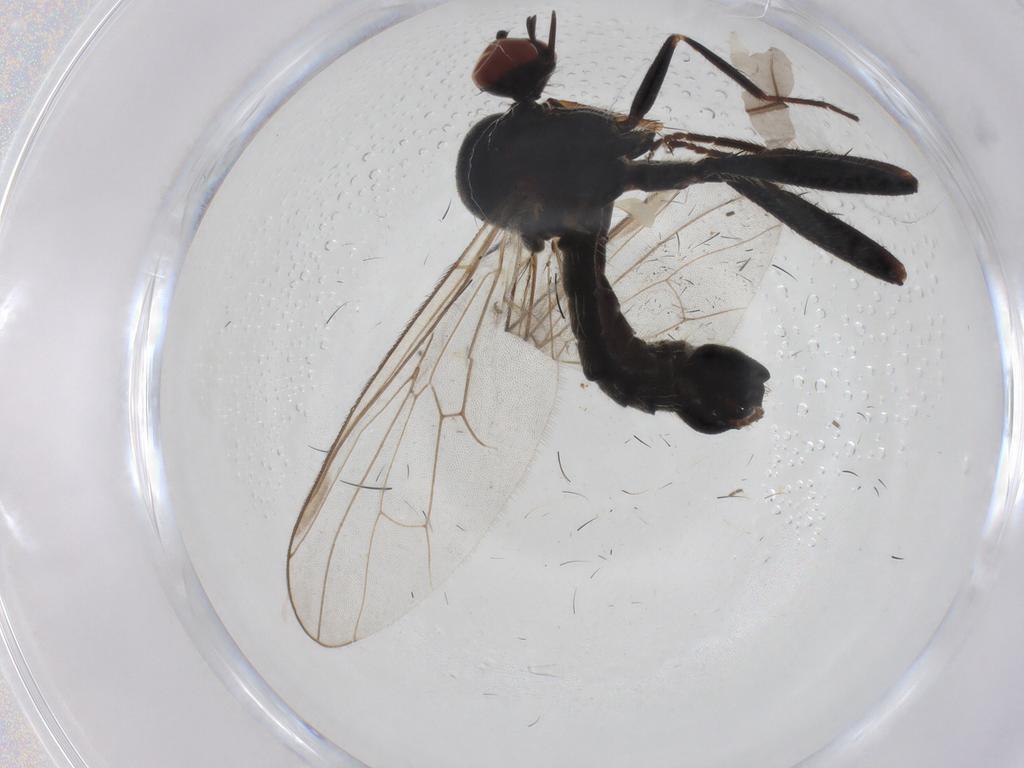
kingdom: Animalia
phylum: Arthropoda
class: Insecta
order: Diptera
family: Hybotidae
